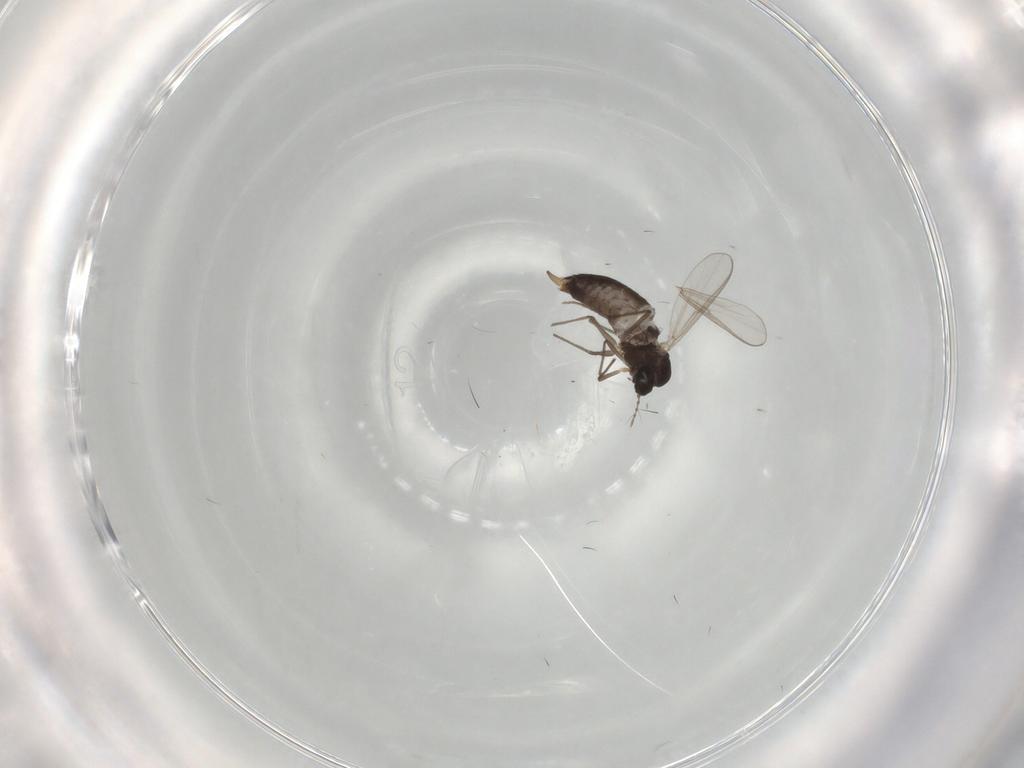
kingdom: Animalia
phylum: Arthropoda
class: Insecta
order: Diptera
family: Chironomidae
